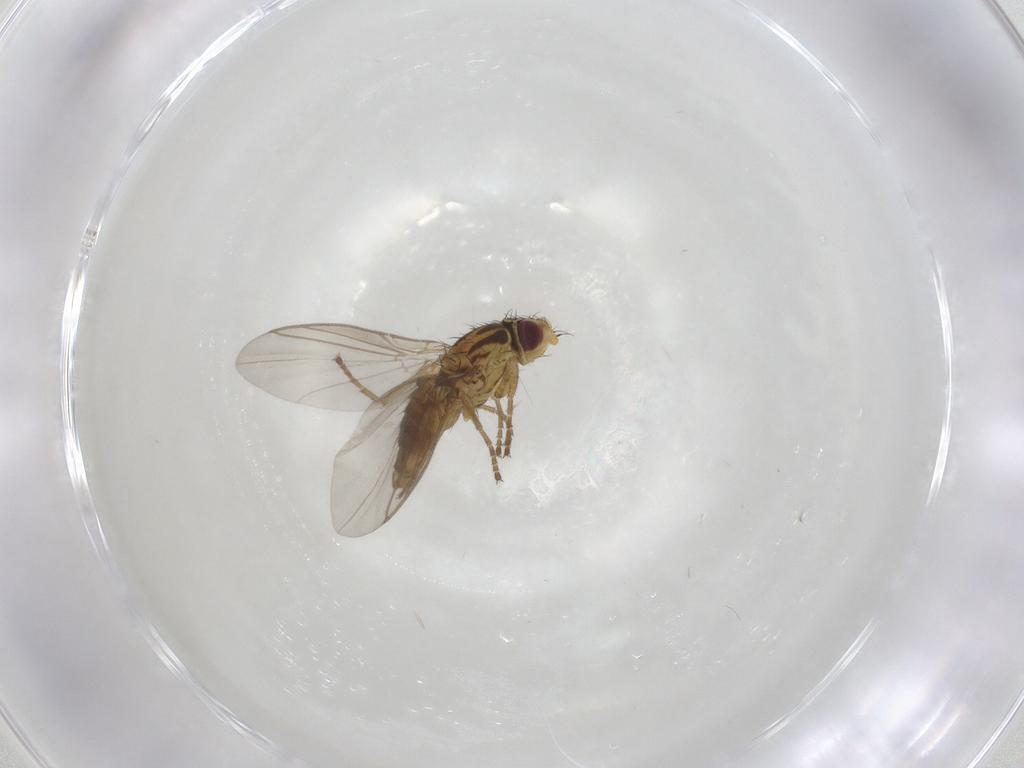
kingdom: Animalia
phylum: Arthropoda
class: Insecta
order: Diptera
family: Agromyzidae
